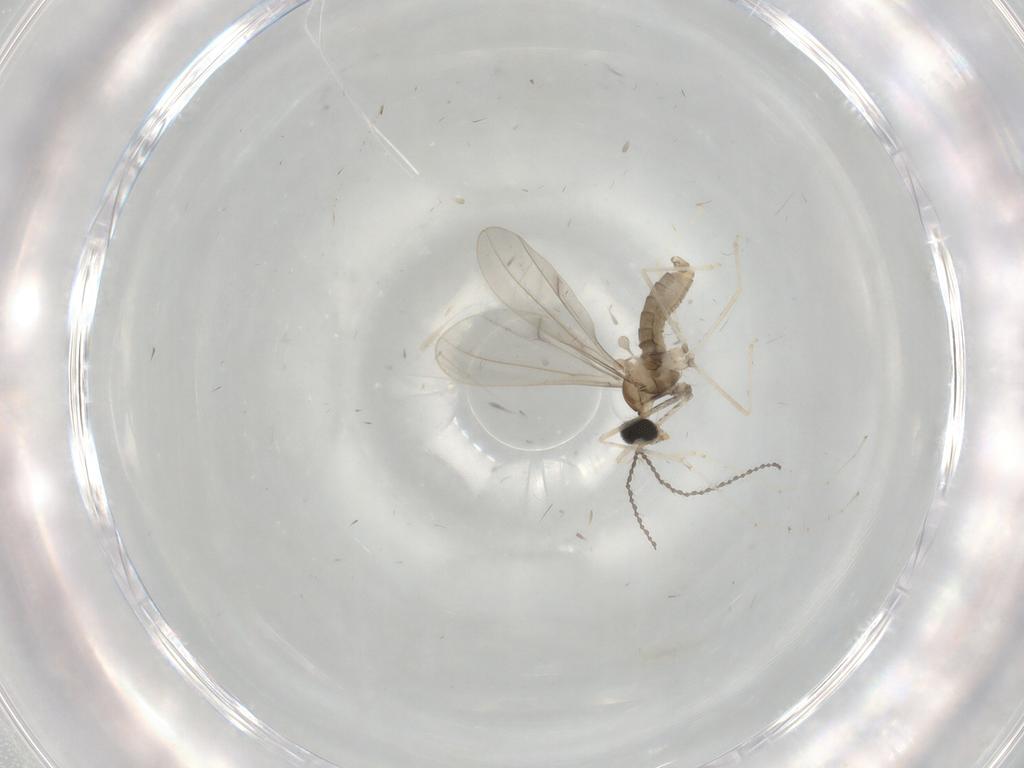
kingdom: Animalia
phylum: Arthropoda
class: Insecta
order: Diptera
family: Cecidomyiidae
